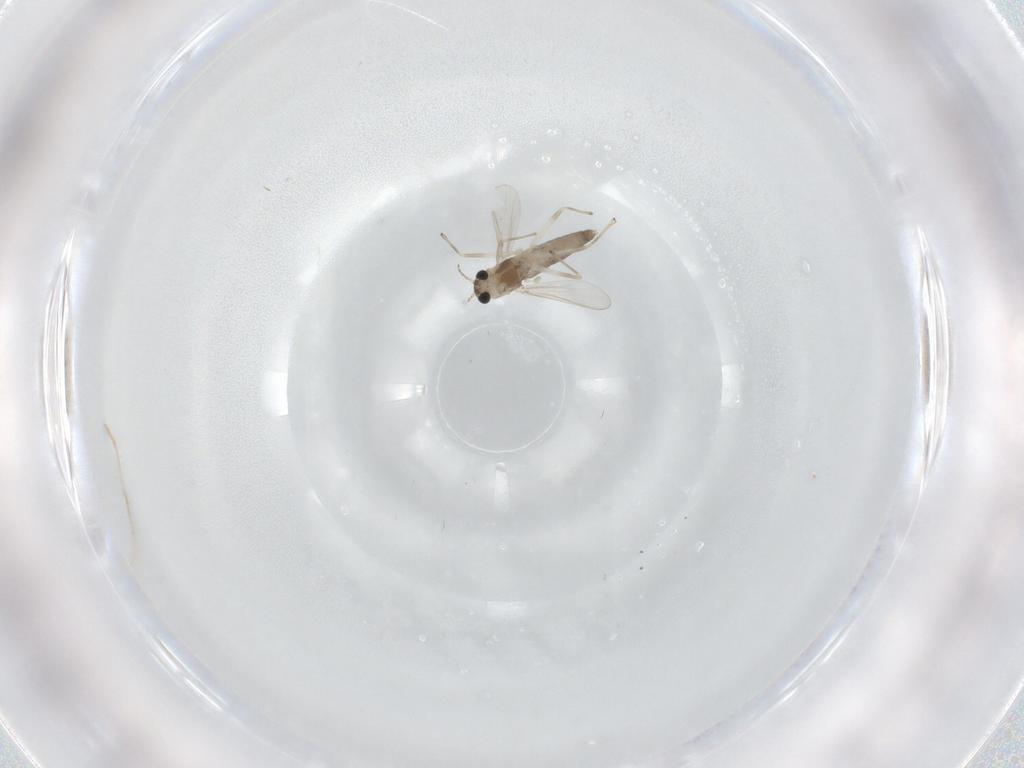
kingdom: Animalia
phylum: Arthropoda
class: Insecta
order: Diptera
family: Chironomidae
